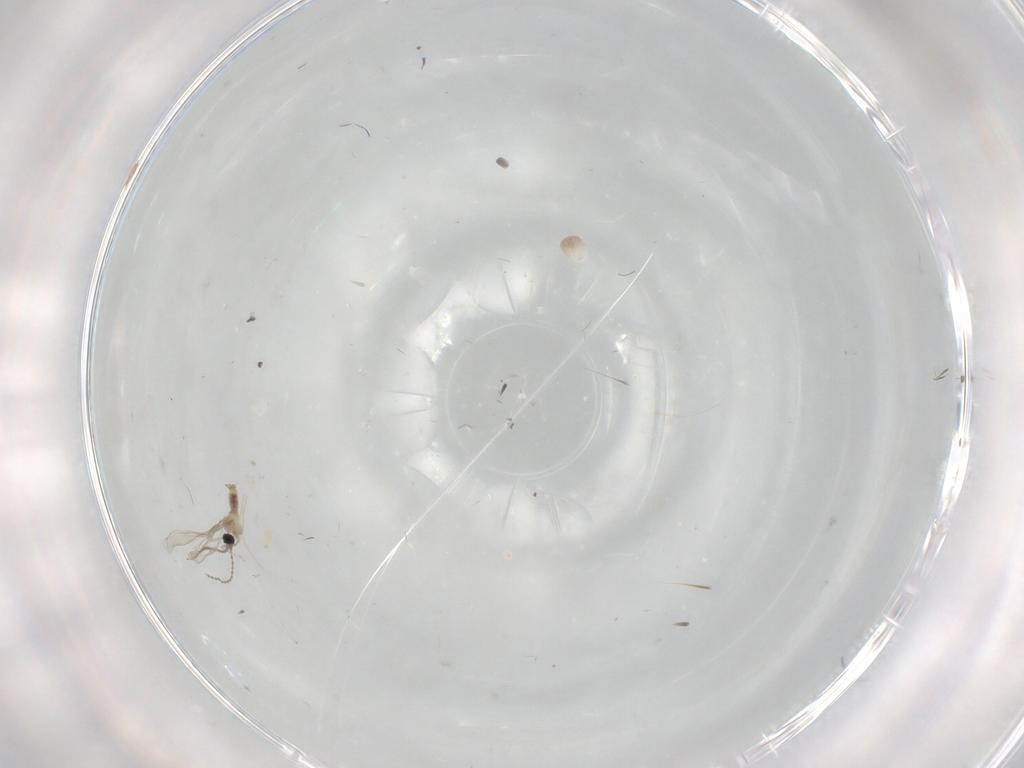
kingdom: Animalia
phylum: Arthropoda
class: Insecta
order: Diptera
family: Cecidomyiidae
